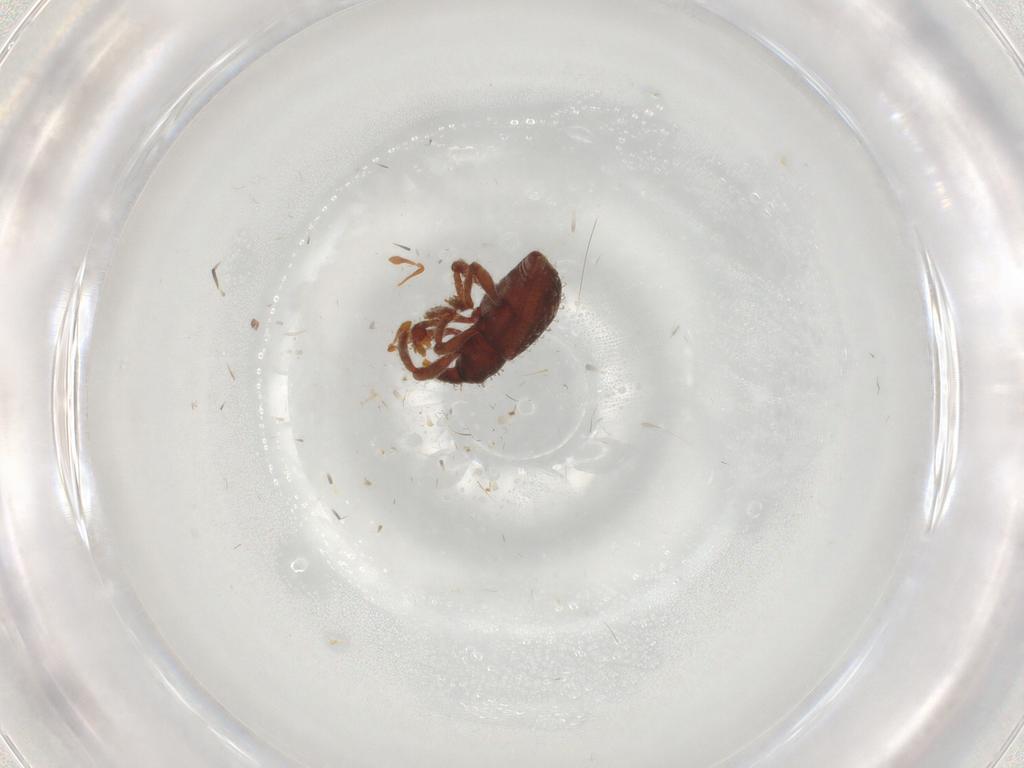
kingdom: Animalia
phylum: Arthropoda
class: Insecta
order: Coleoptera
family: Curculionidae
